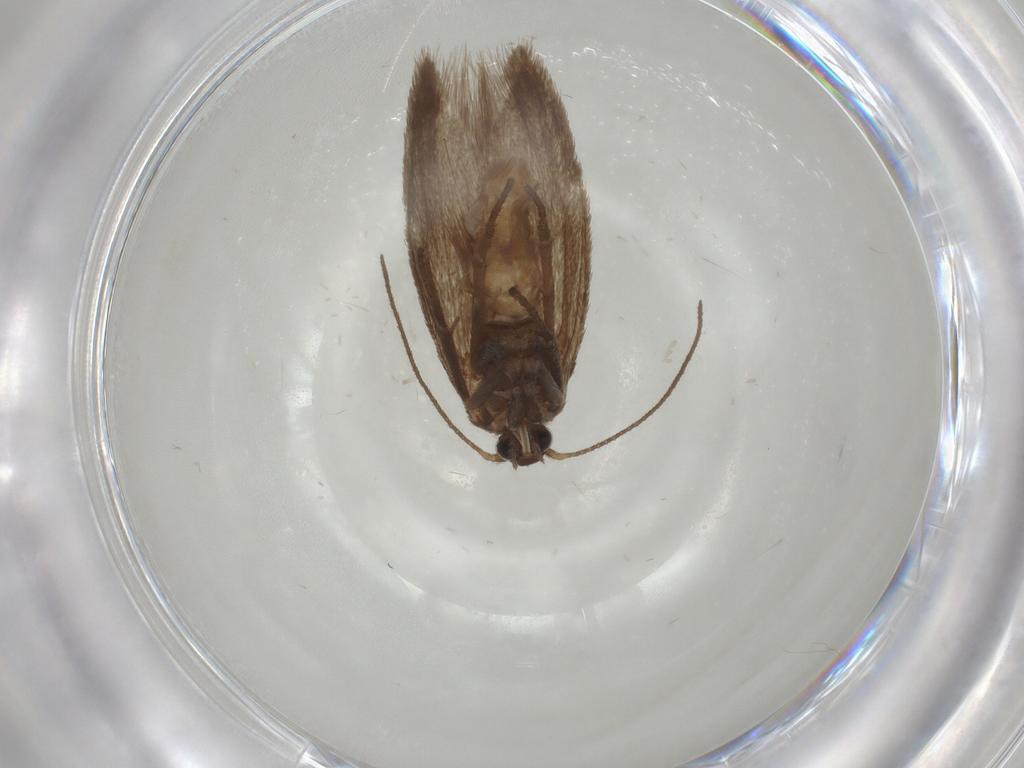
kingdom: Animalia
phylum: Arthropoda
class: Insecta
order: Lepidoptera
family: Limacodidae
